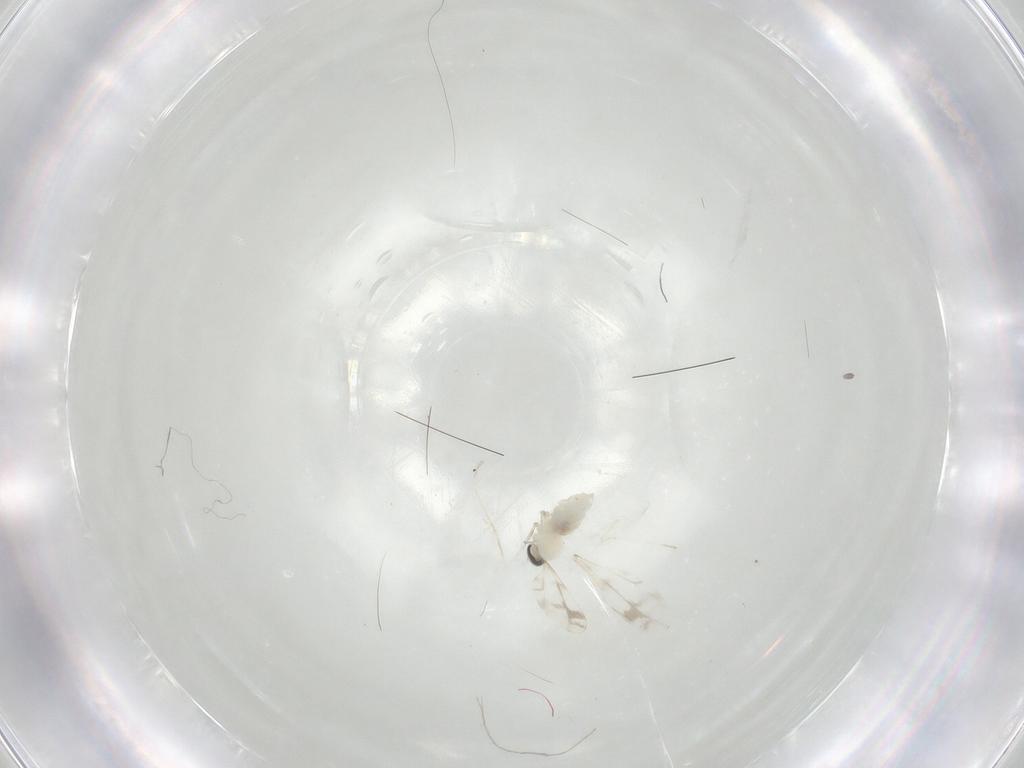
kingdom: Animalia
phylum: Arthropoda
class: Insecta
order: Diptera
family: Cecidomyiidae
